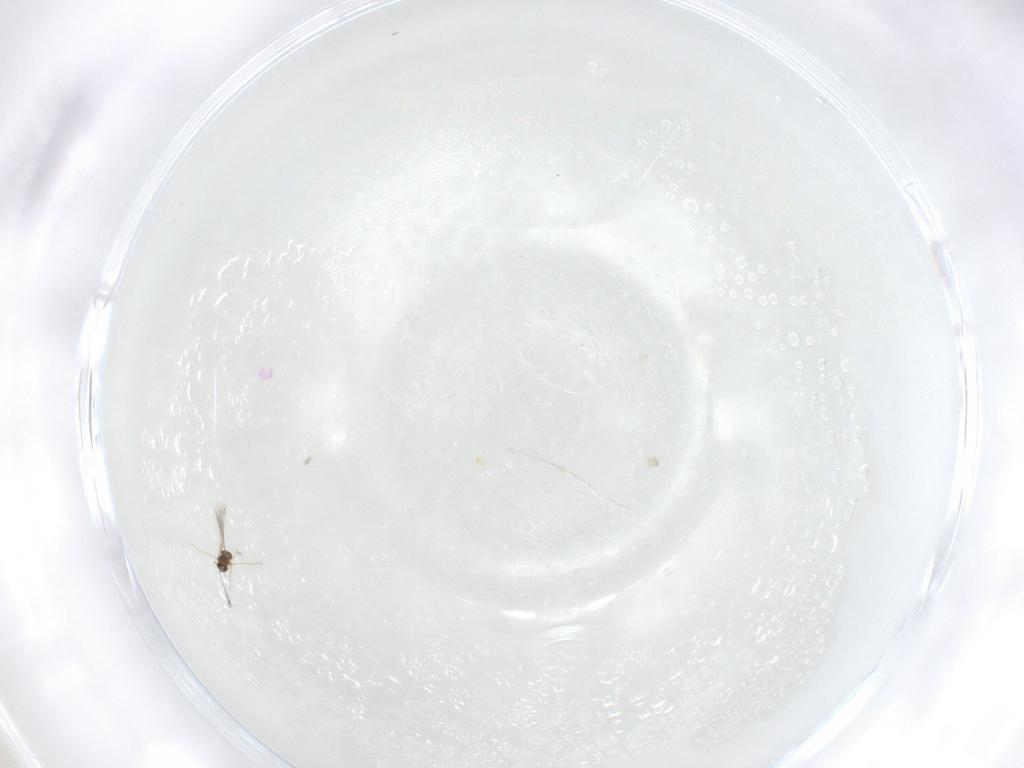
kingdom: Animalia
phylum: Arthropoda
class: Insecta
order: Hymenoptera
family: Mymaridae
